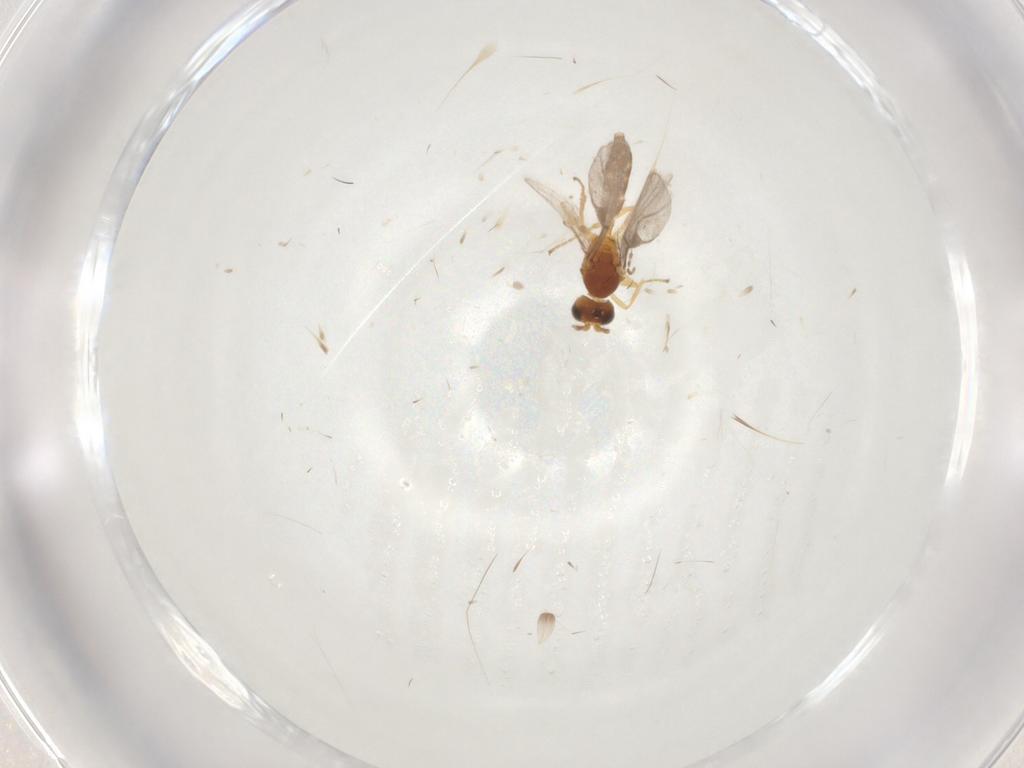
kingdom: Animalia
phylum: Arthropoda
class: Insecta
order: Hymenoptera
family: Braconidae
